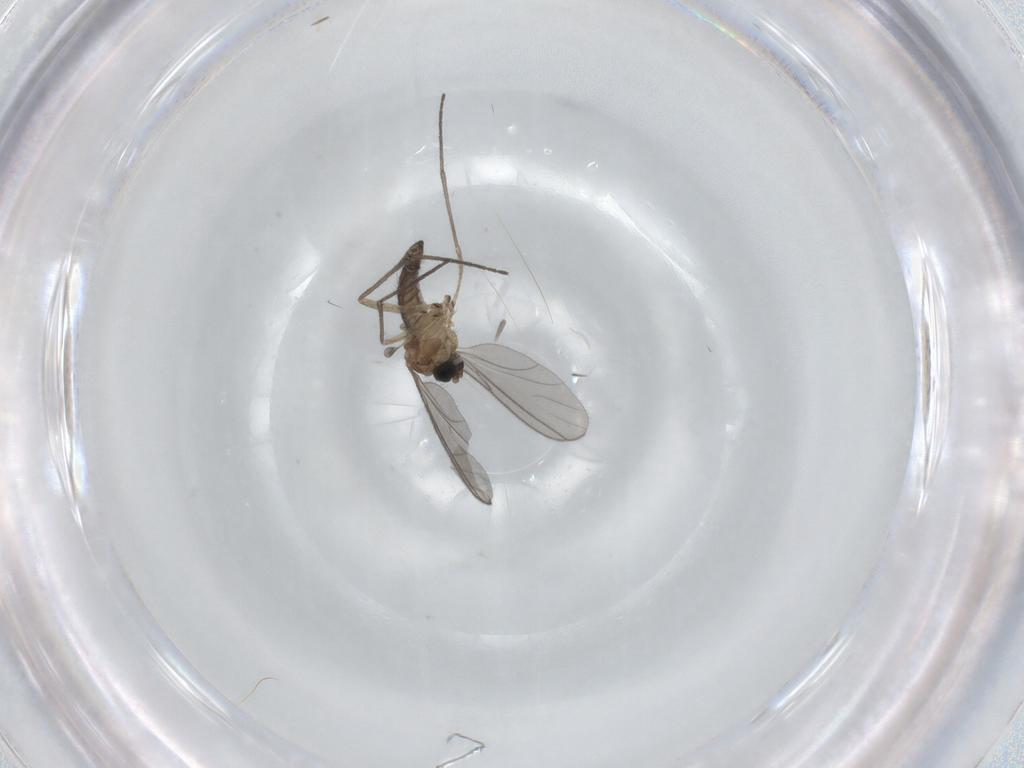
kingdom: Animalia
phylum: Arthropoda
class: Insecta
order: Diptera
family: Sciaridae
